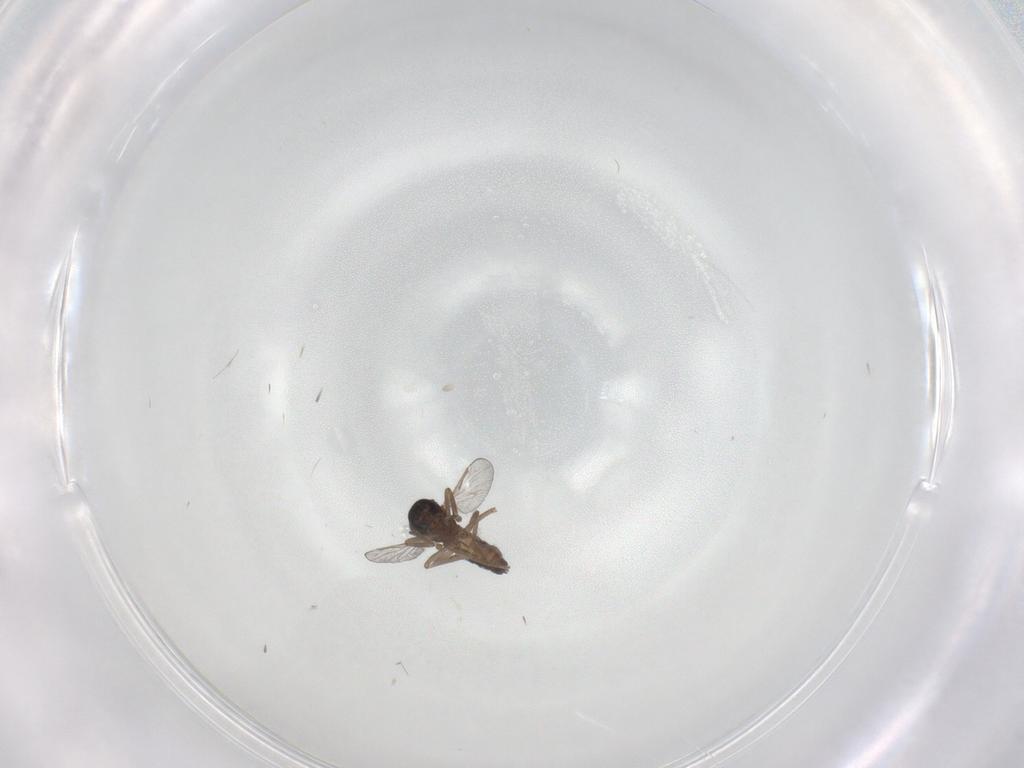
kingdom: Animalia
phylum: Arthropoda
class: Insecta
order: Diptera
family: Ceratopogonidae
